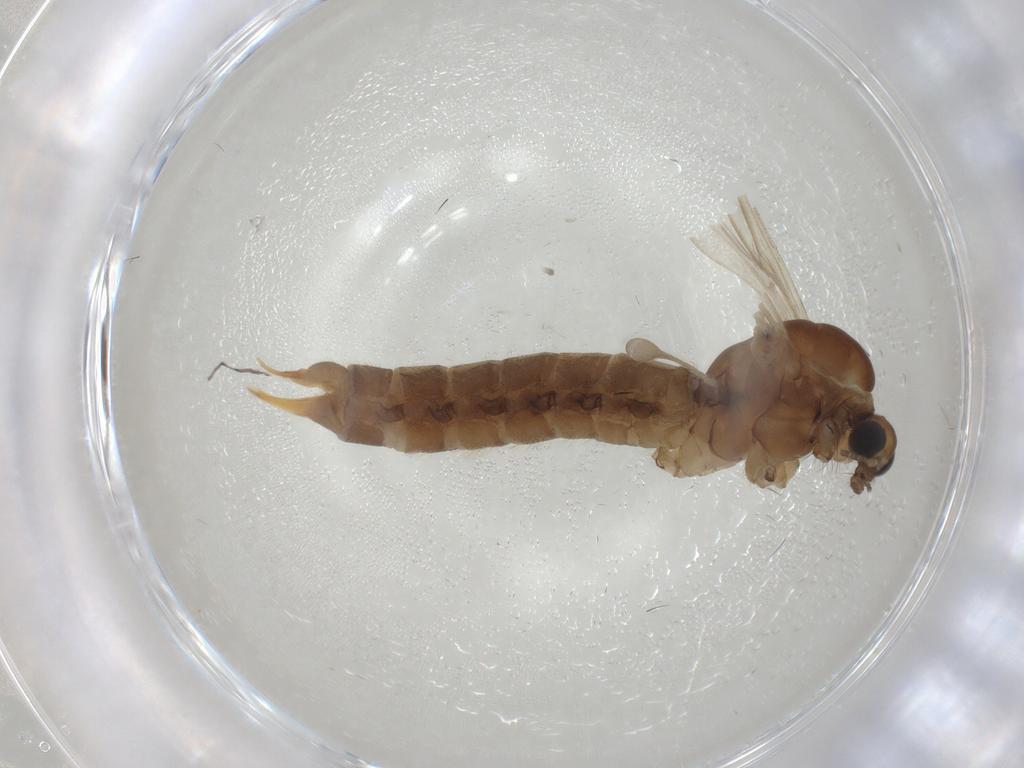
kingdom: Animalia
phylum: Arthropoda
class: Insecta
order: Diptera
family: Limoniidae
